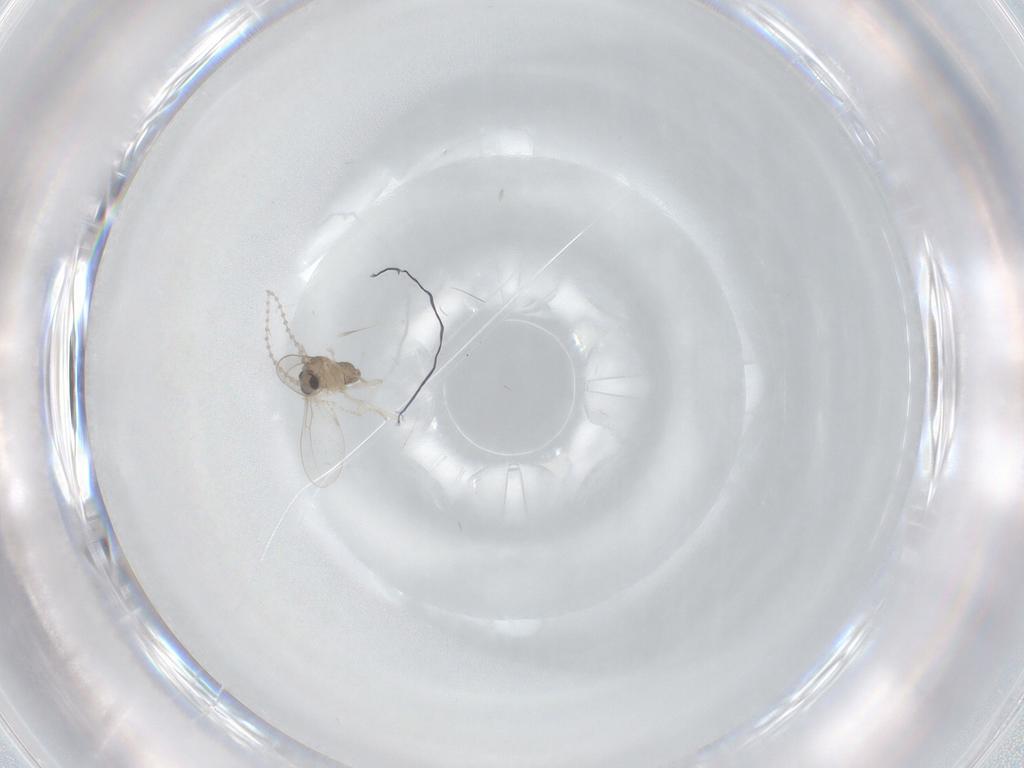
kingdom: Animalia
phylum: Arthropoda
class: Insecta
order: Diptera
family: Cecidomyiidae
